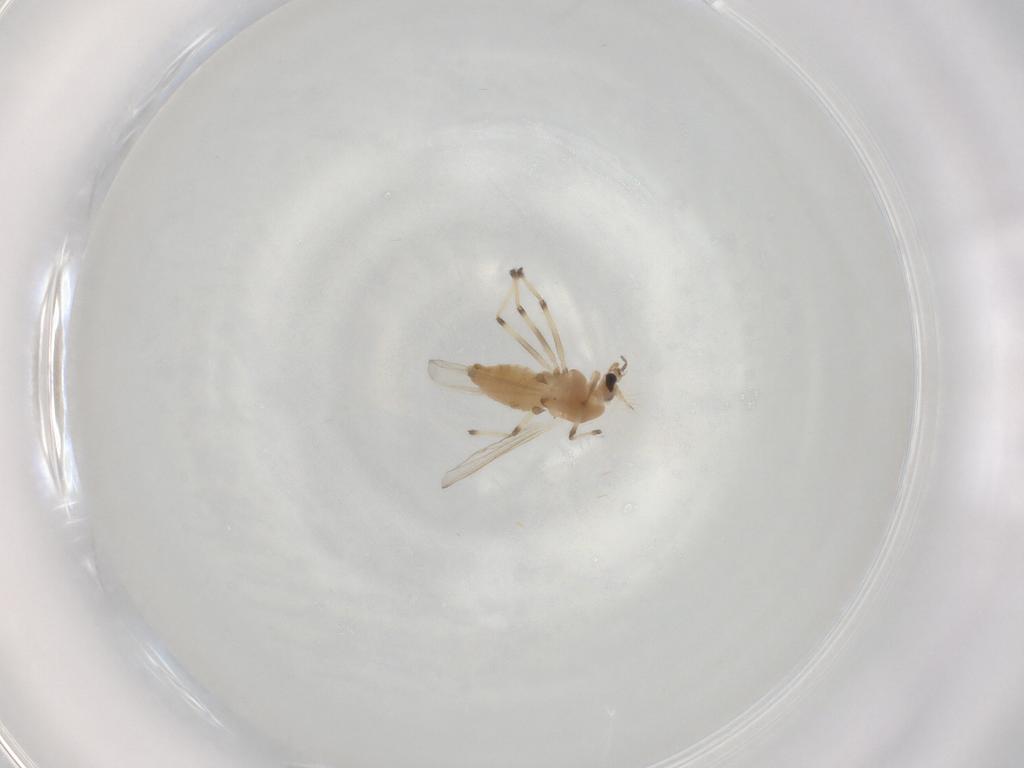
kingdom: Animalia
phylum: Arthropoda
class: Insecta
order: Diptera
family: Chironomidae
